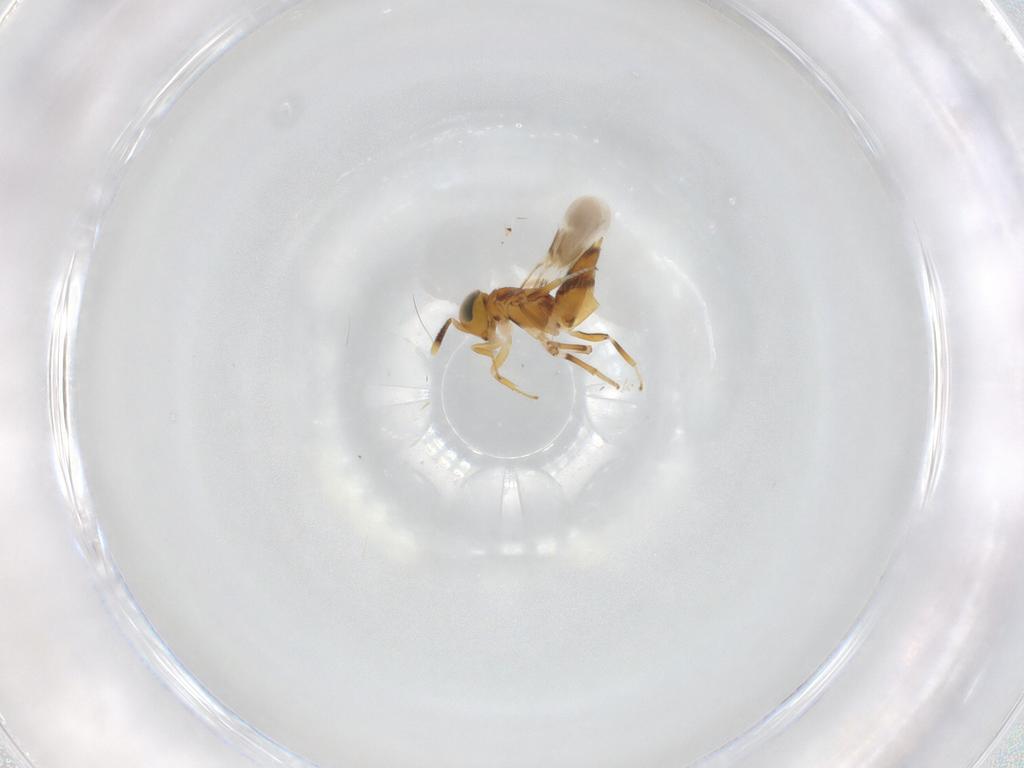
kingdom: Animalia
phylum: Arthropoda
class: Insecta
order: Hymenoptera
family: Encyrtidae
